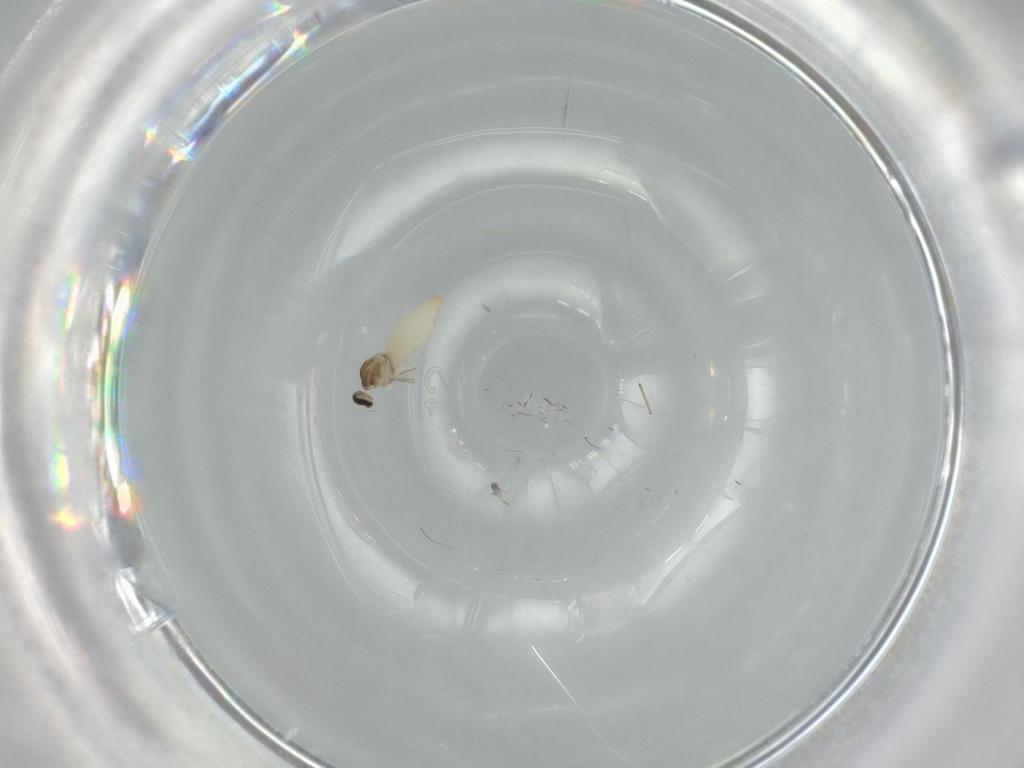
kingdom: Animalia
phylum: Arthropoda
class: Insecta
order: Diptera
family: Cecidomyiidae
